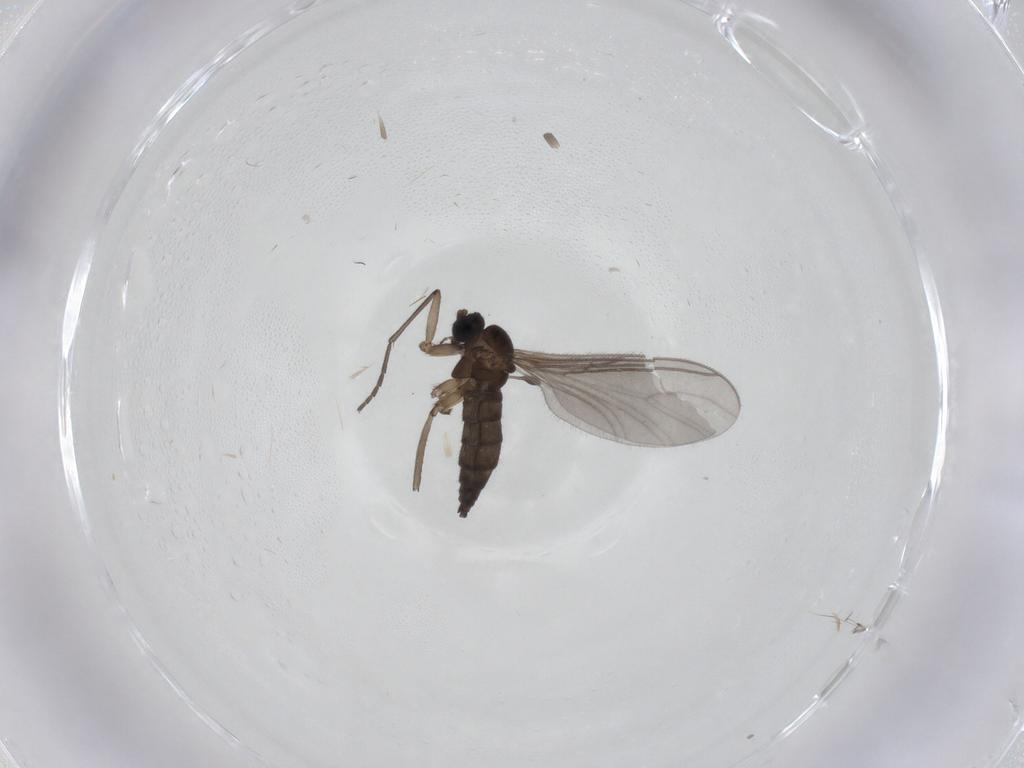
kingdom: Animalia
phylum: Arthropoda
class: Insecta
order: Diptera
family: Sciaridae
